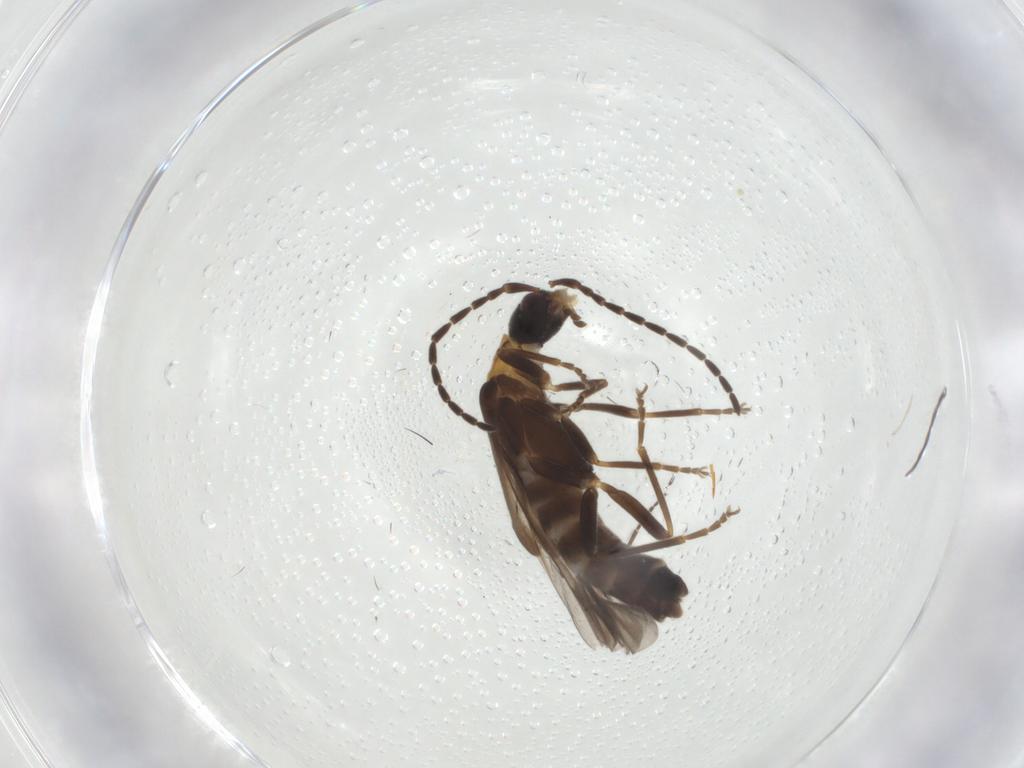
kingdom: Animalia
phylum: Arthropoda
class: Insecta
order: Coleoptera
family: Cantharidae
